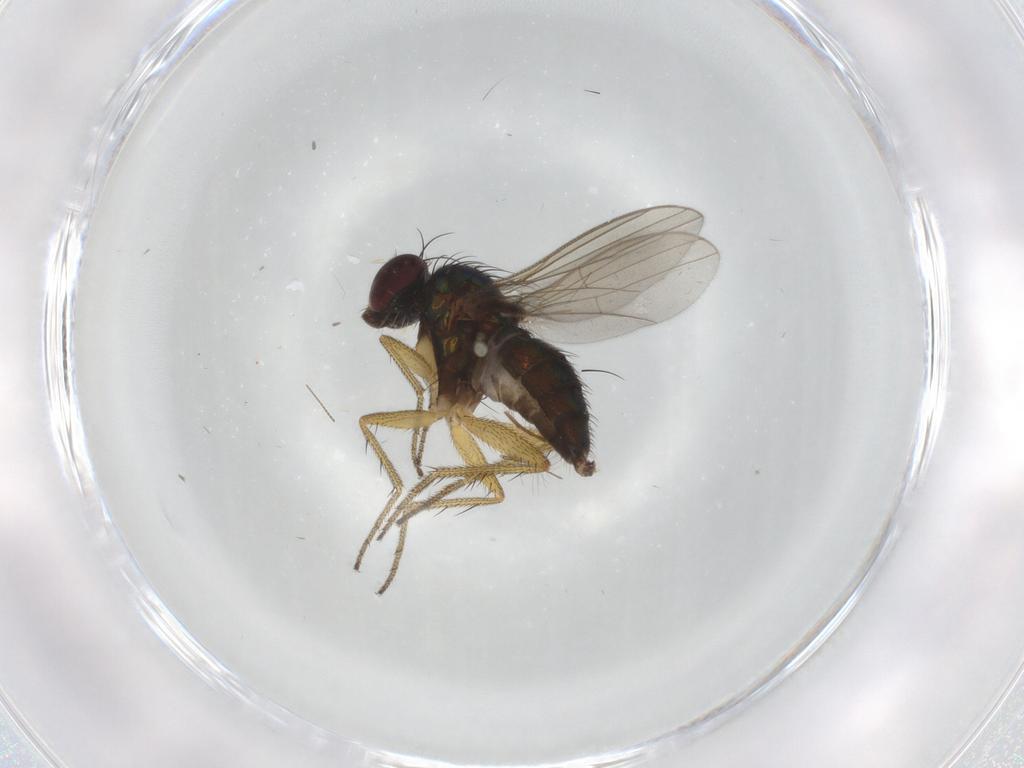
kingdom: Animalia
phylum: Arthropoda
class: Insecta
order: Diptera
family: Dolichopodidae
